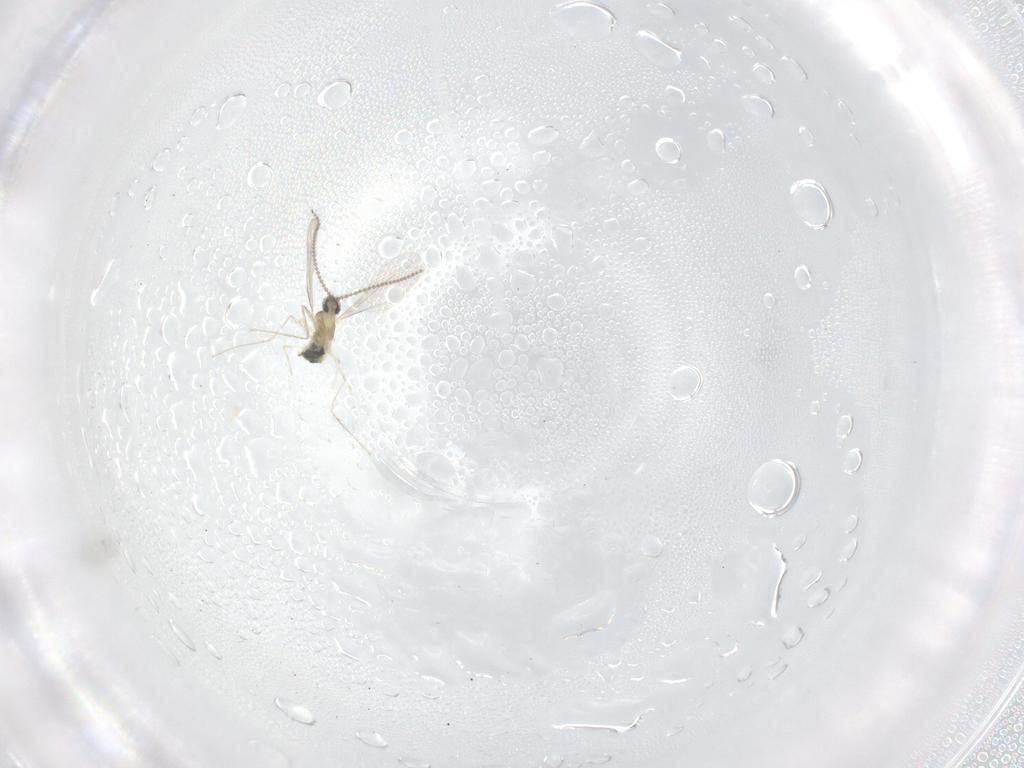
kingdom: Animalia
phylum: Arthropoda
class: Insecta
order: Diptera
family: Cecidomyiidae
